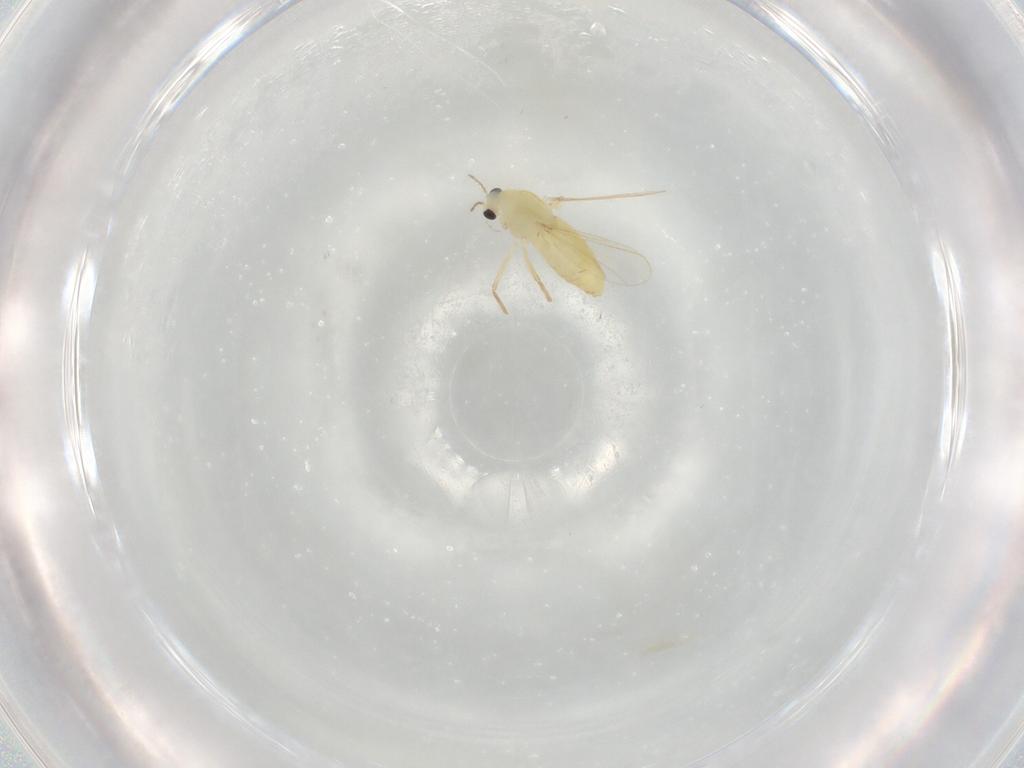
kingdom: Animalia
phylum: Arthropoda
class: Insecta
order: Diptera
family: Chironomidae
